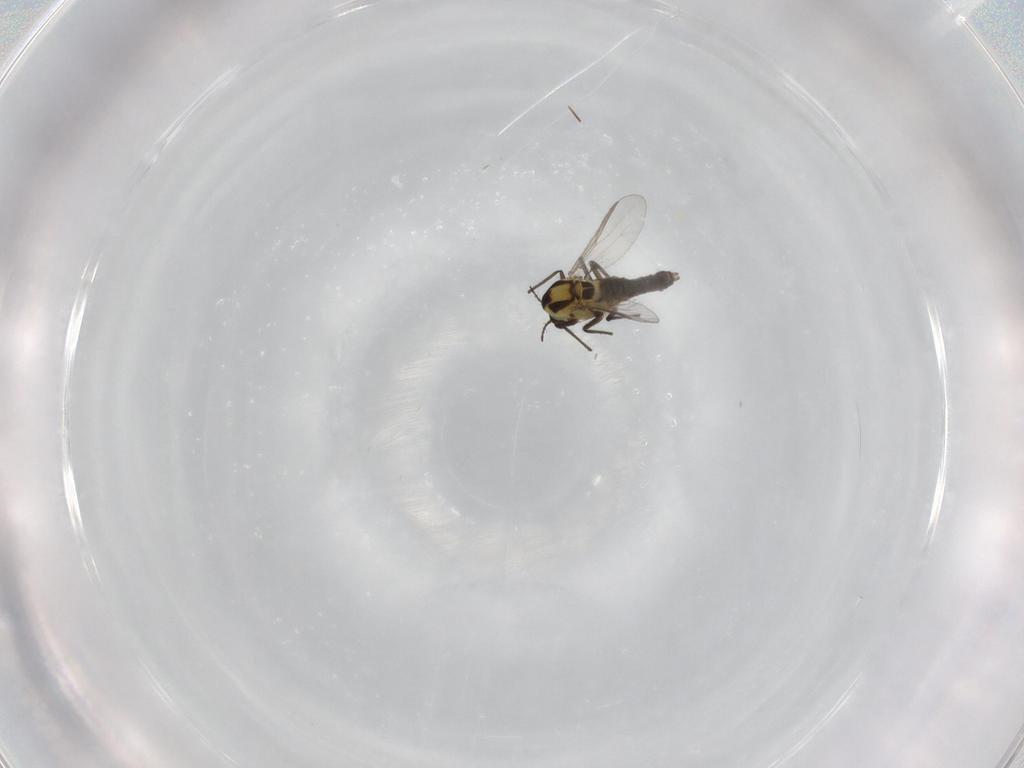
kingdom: Animalia
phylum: Arthropoda
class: Insecta
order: Diptera
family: Chironomidae
